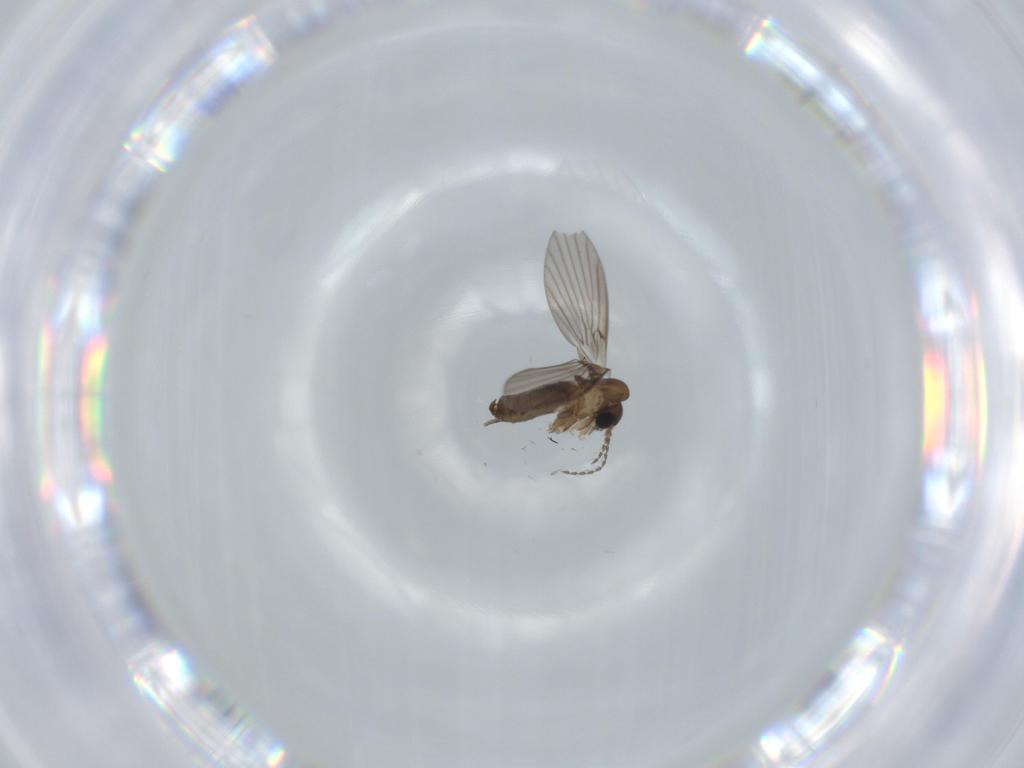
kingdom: Animalia
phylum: Arthropoda
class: Insecta
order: Diptera
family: Psychodidae
